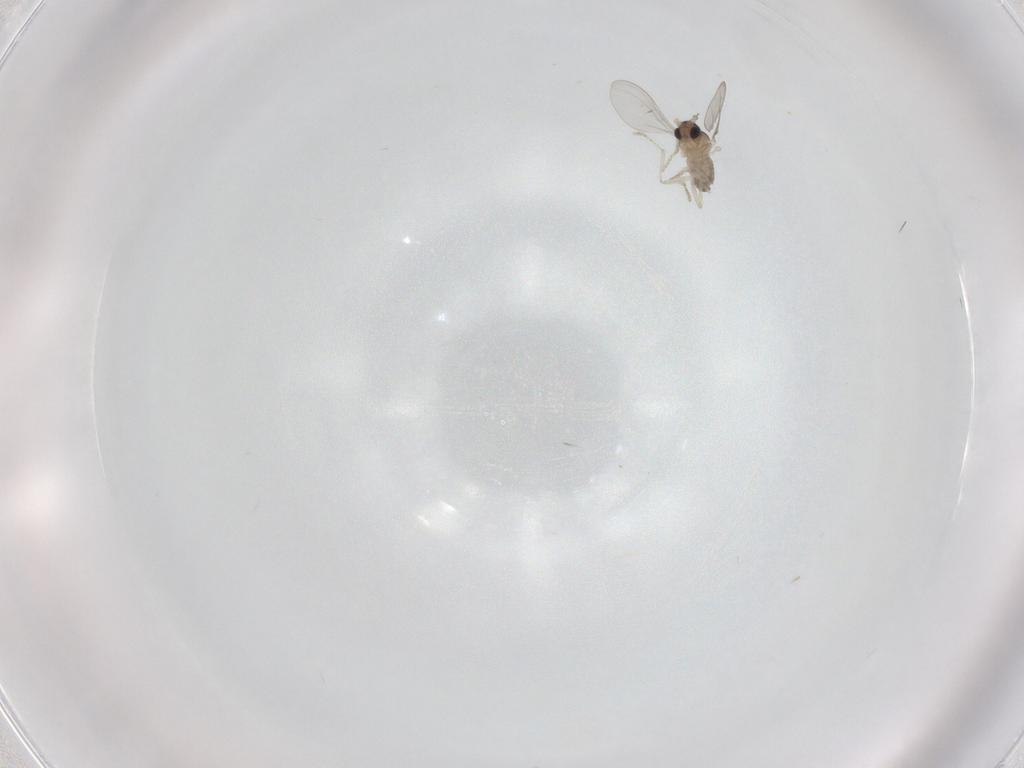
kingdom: Animalia
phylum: Arthropoda
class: Insecta
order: Diptera
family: Cecidomyiidae
